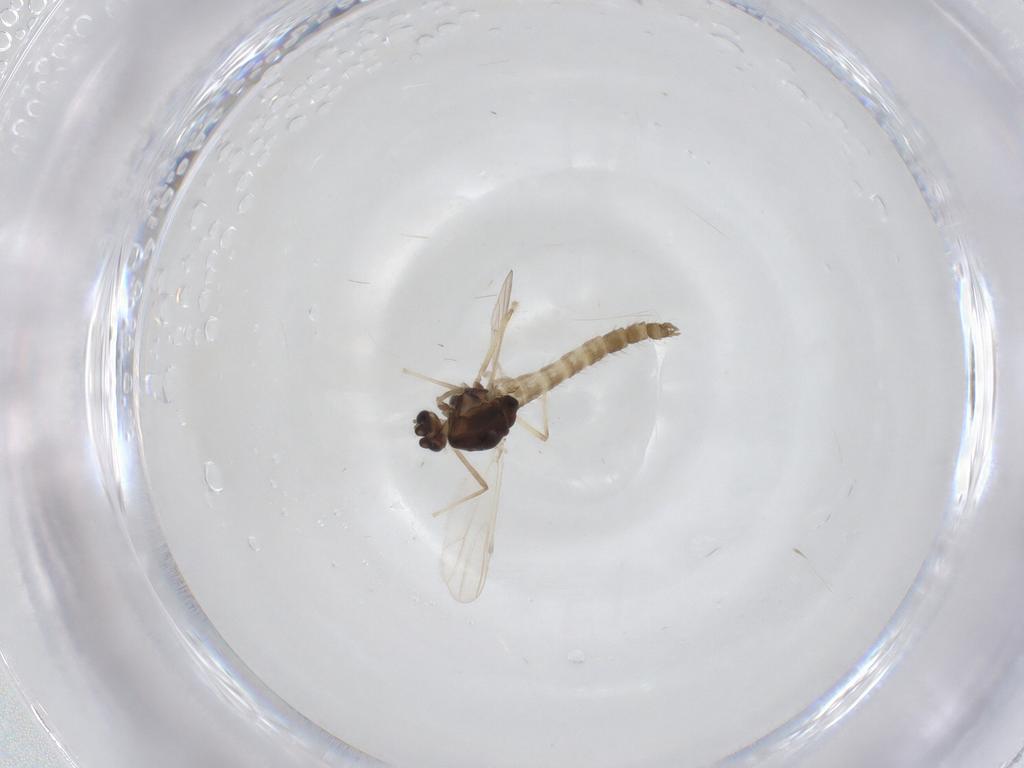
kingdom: Animalia
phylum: Arthropoda
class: Insecta
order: Diptera
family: Chironomidae
